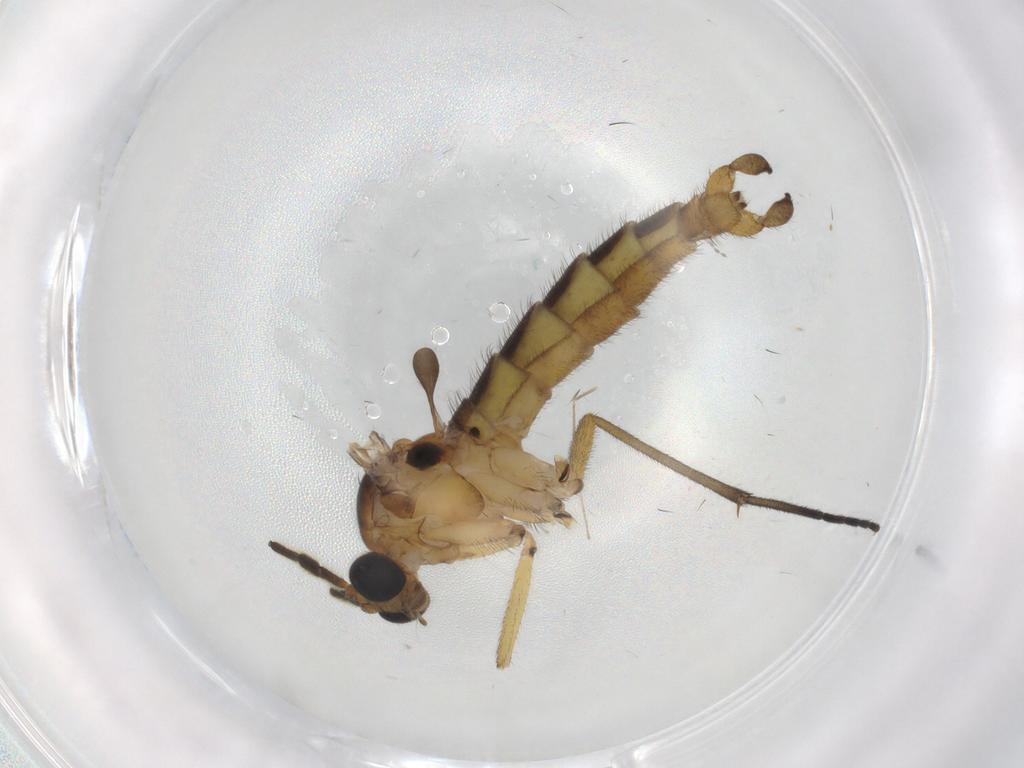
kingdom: Animalia
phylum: Arthropoda
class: Insecta
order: Diptera
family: Sciaridae
